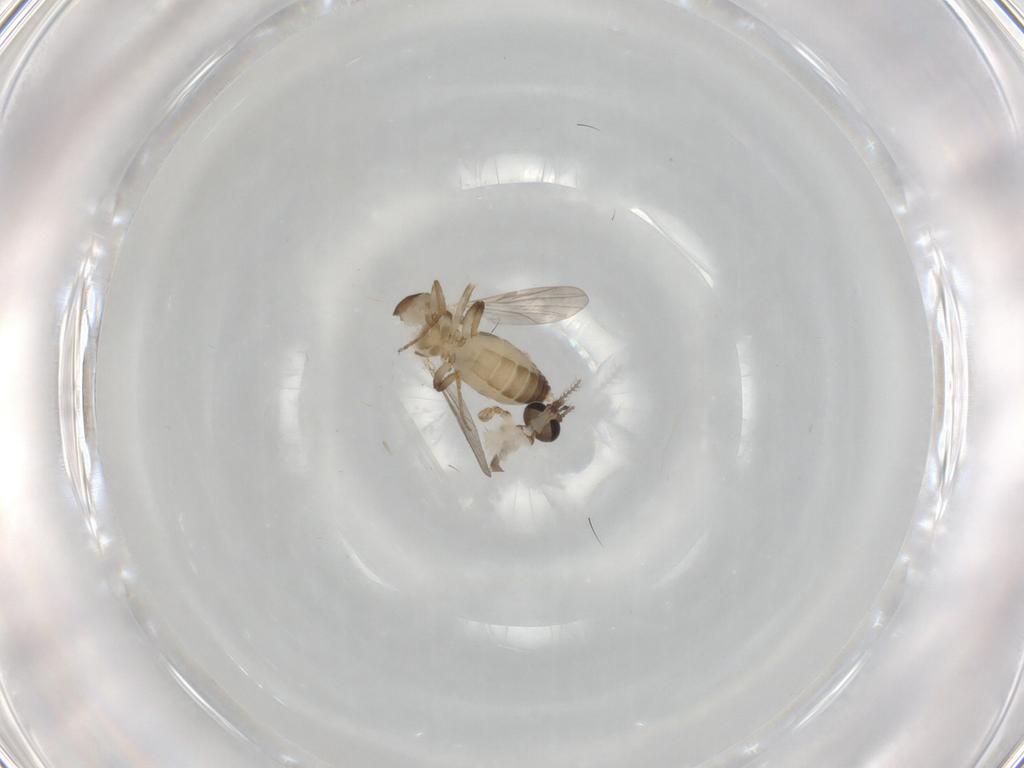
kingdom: Animalia
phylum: Arthropoda
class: Insecta
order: Diptera
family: Ceratopogonidae
